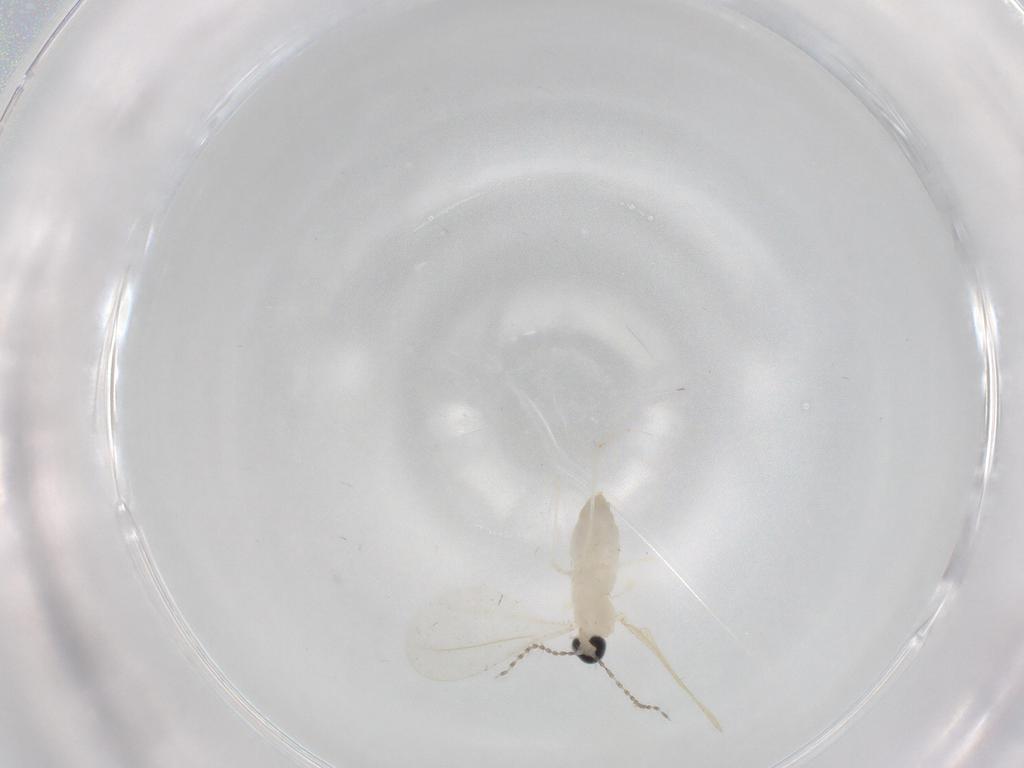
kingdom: Animalia
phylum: Arthropoda
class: Insecta
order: Diptera
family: Cecidomyiidae
